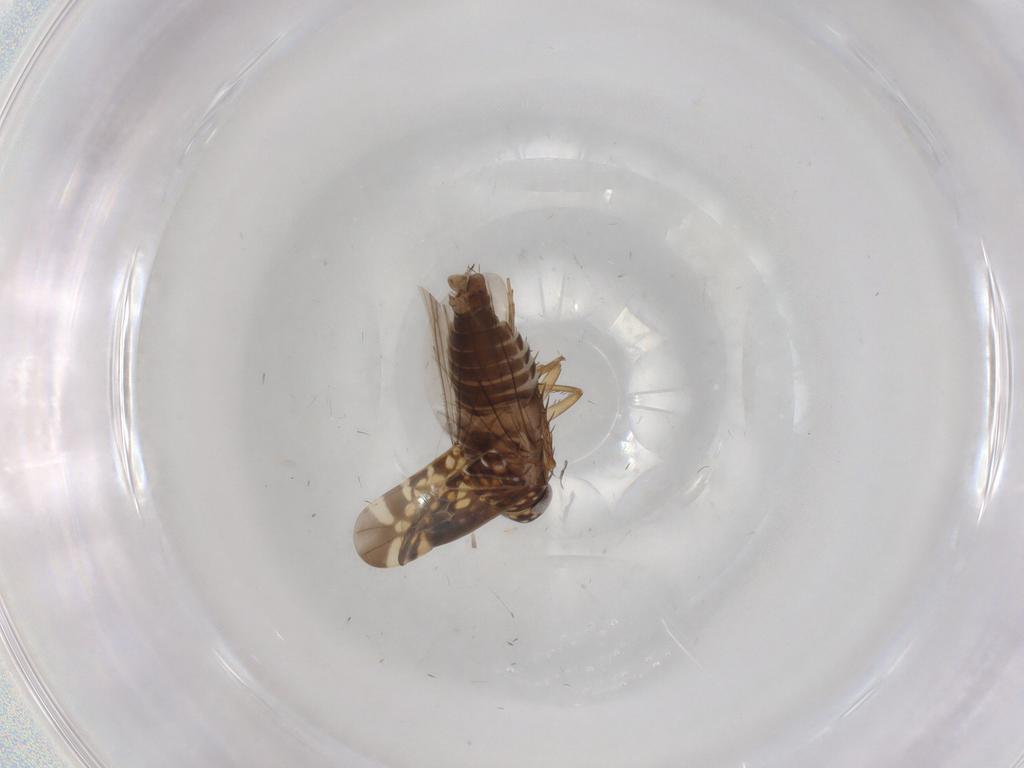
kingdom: Animalia
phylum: Arthropoda
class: Insecta
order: Hemiptera
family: Cicadellidae
